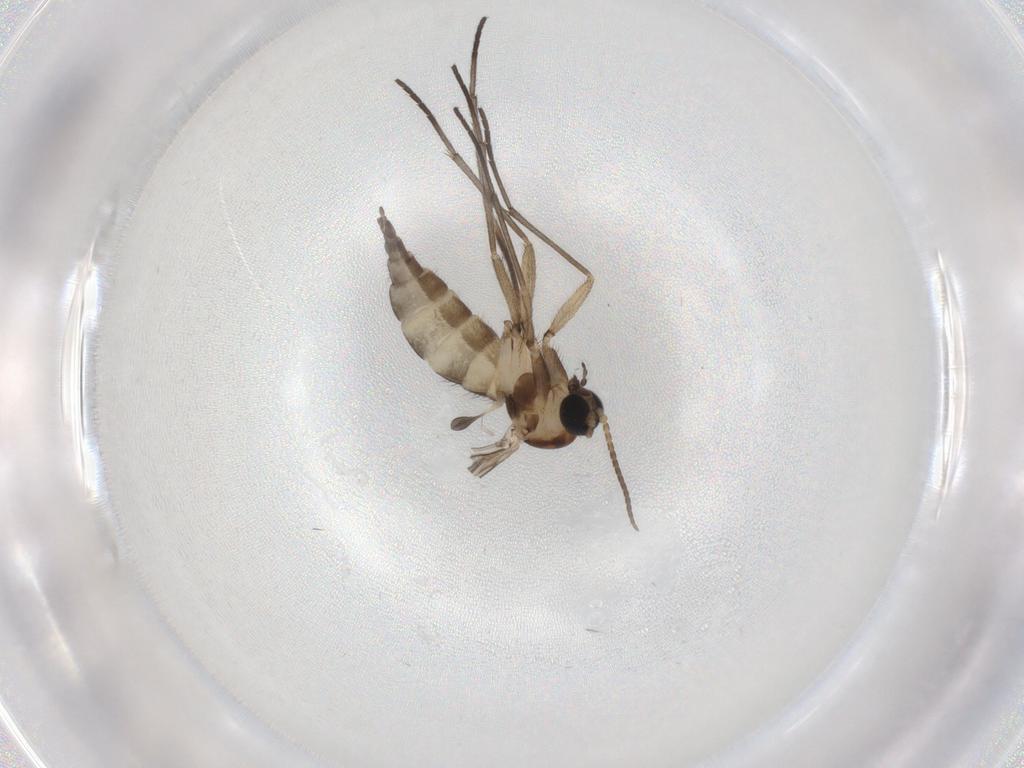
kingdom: Animalia
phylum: Arthropoda
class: Insecta
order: Diptera
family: Sciaridae
